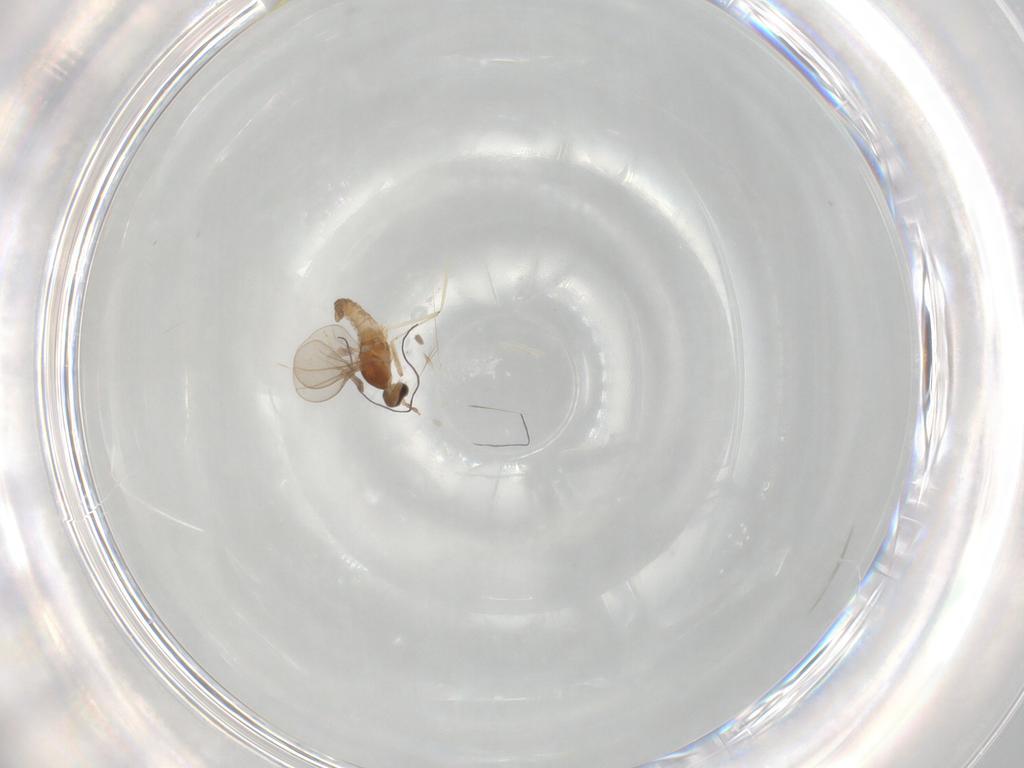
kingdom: Animalia
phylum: Arthropoda
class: Insecta
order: Diptera
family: Cecidomyiidae
